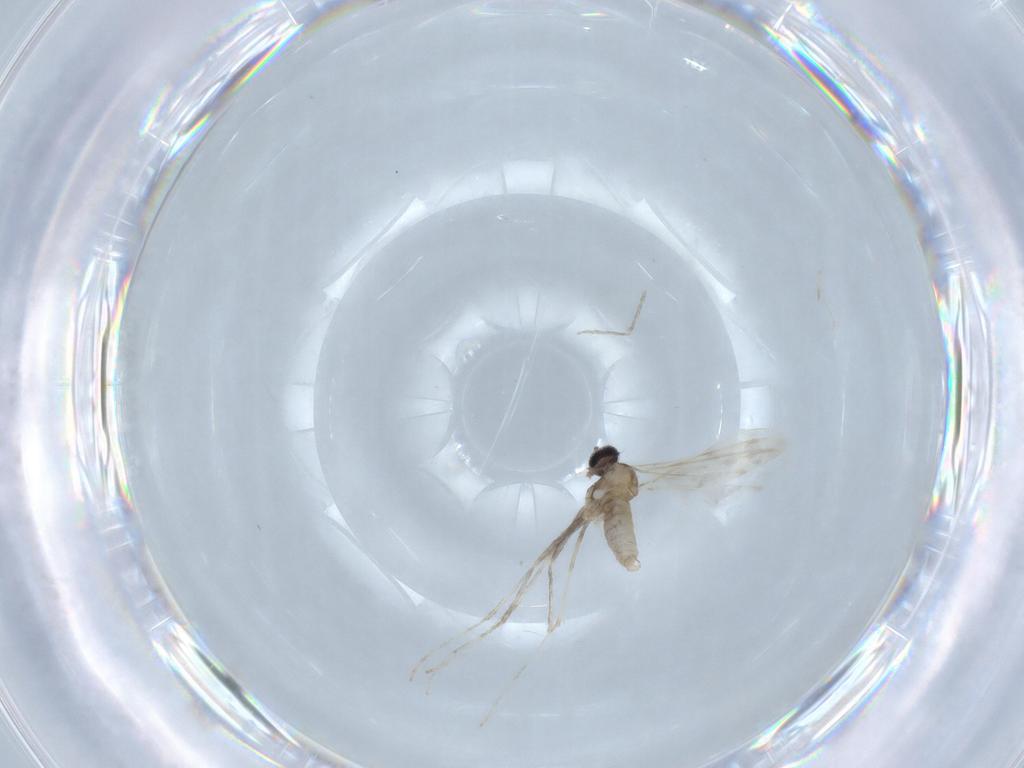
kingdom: Animalia
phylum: Arthropoda
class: Insecta
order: Diptera
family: Cecidomyiidae
